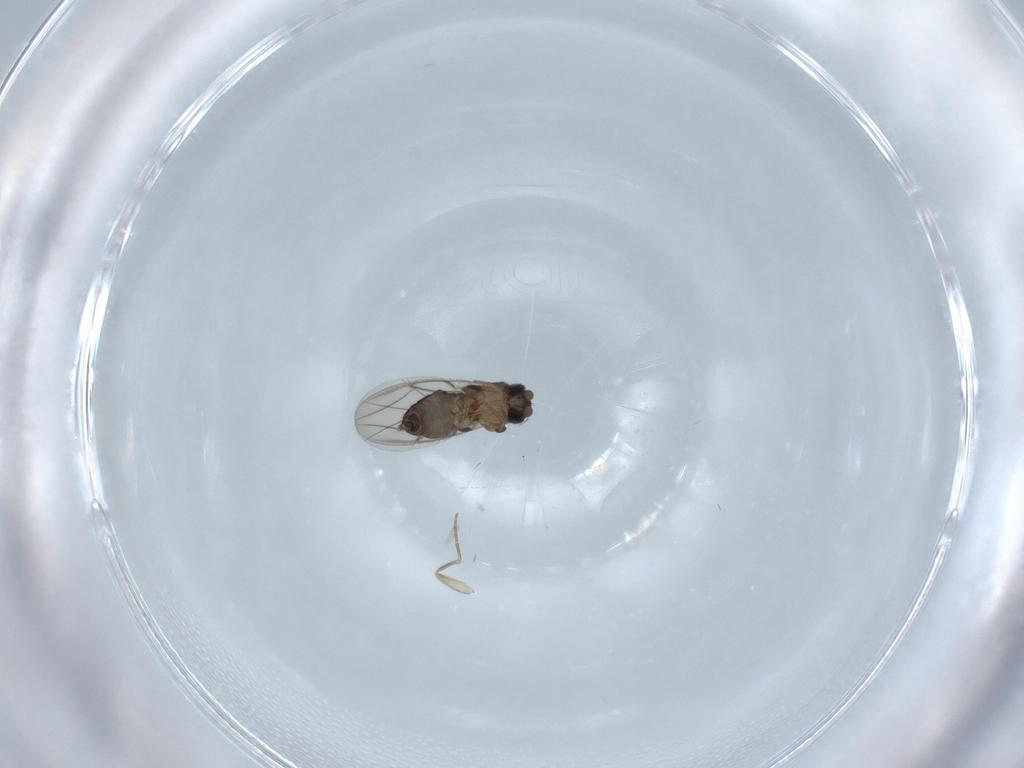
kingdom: Animalia
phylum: Arthropoda
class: Insecta
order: Diptera
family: Phoridae
